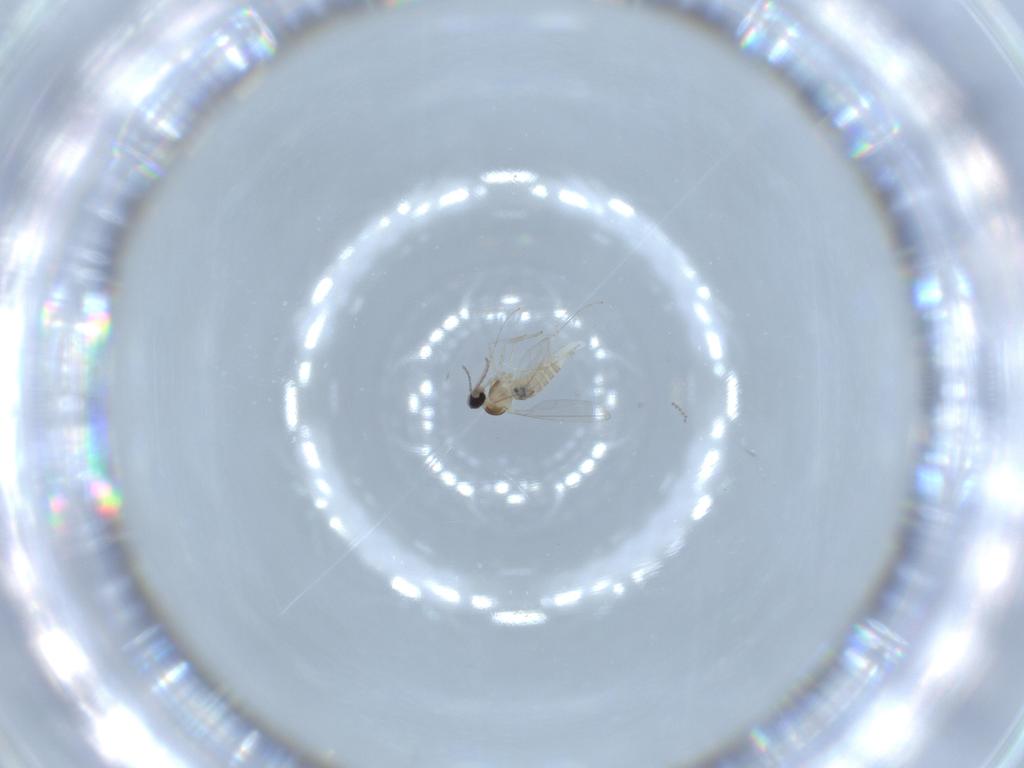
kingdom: Animalia
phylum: Arthropoda
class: Insecta
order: Diptera
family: Cecidomyiidae
